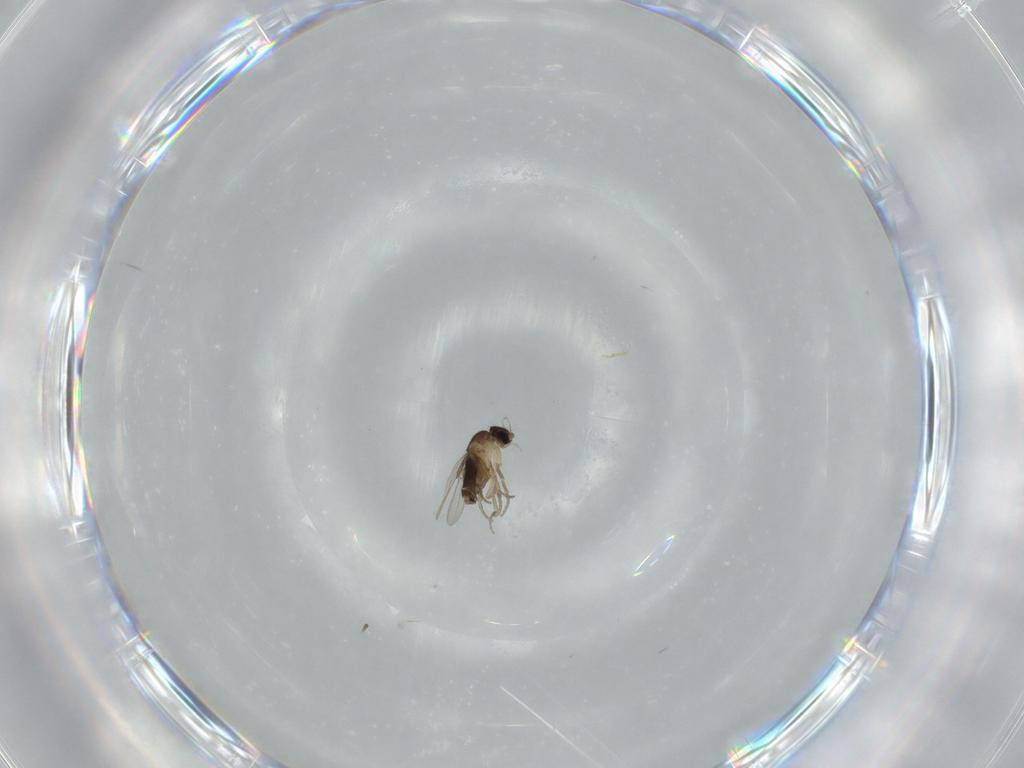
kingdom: Animalia
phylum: Arthropoda
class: Insecta
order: Diptera
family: Phoridae
